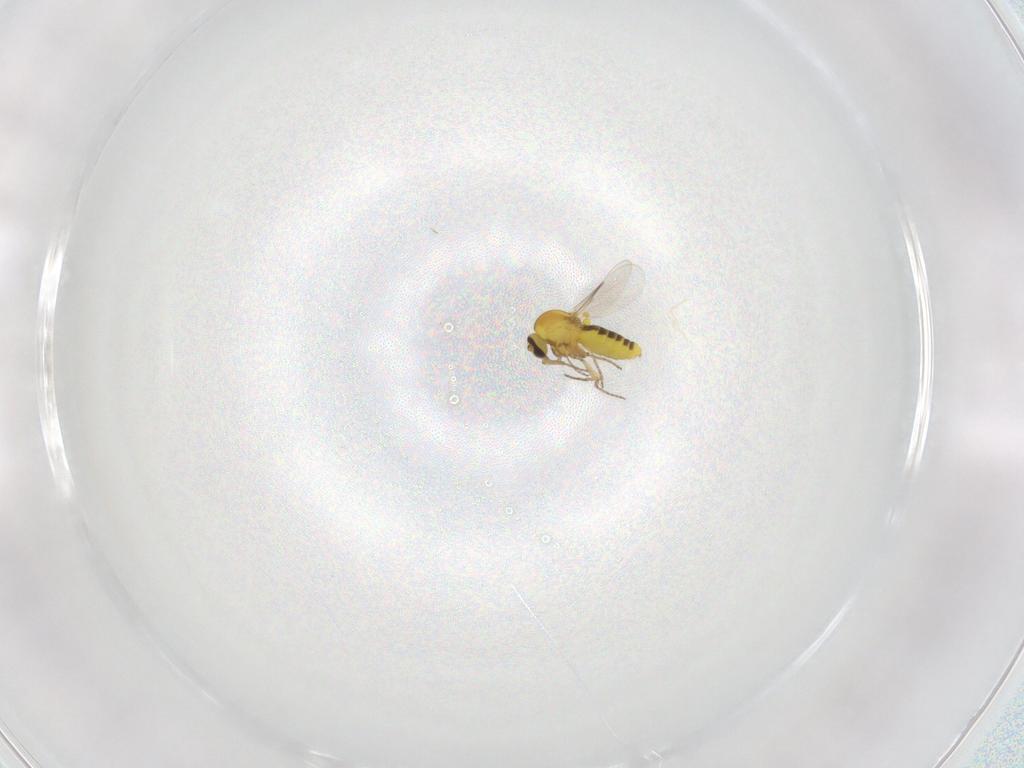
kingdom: Animalia
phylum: Arthropoda
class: Insecta
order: Diptera
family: Ceratopogonidae
